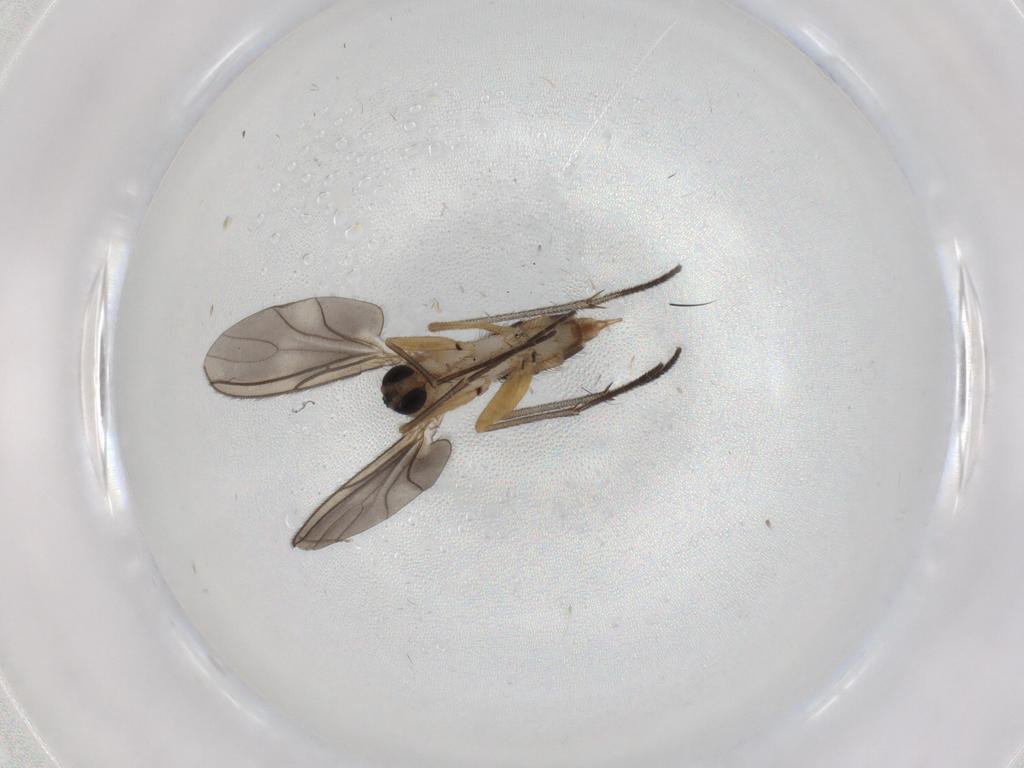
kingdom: Animalia
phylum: Arthropoda
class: Insecta
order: Diptera
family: Sciaridae
